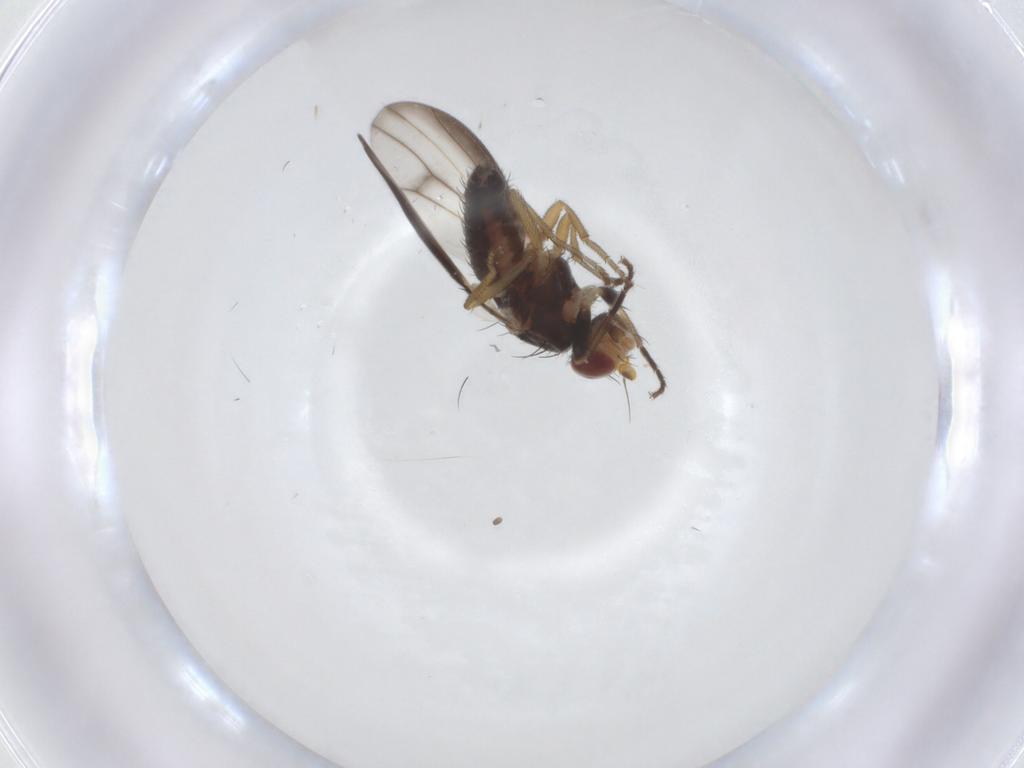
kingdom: Animalia
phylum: Arthropoda
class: Insecta
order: Diptera
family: Heleomyzidae
